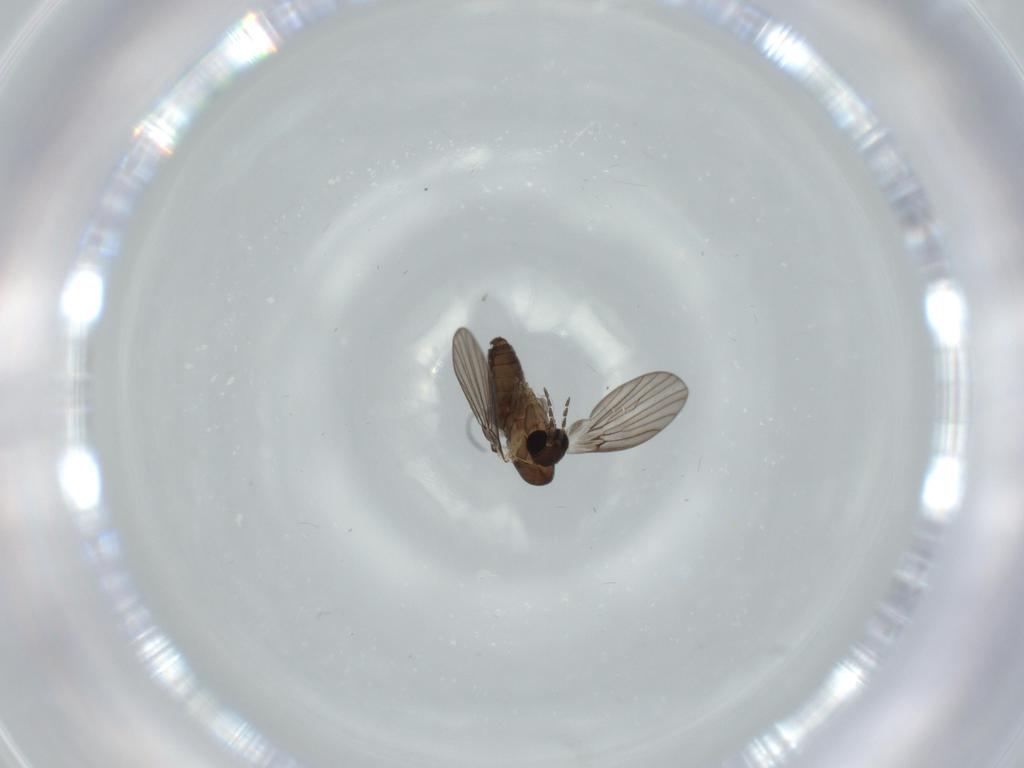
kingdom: Animalia
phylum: Arthropoda
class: Insecta
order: Diptera
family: Psychodidae
